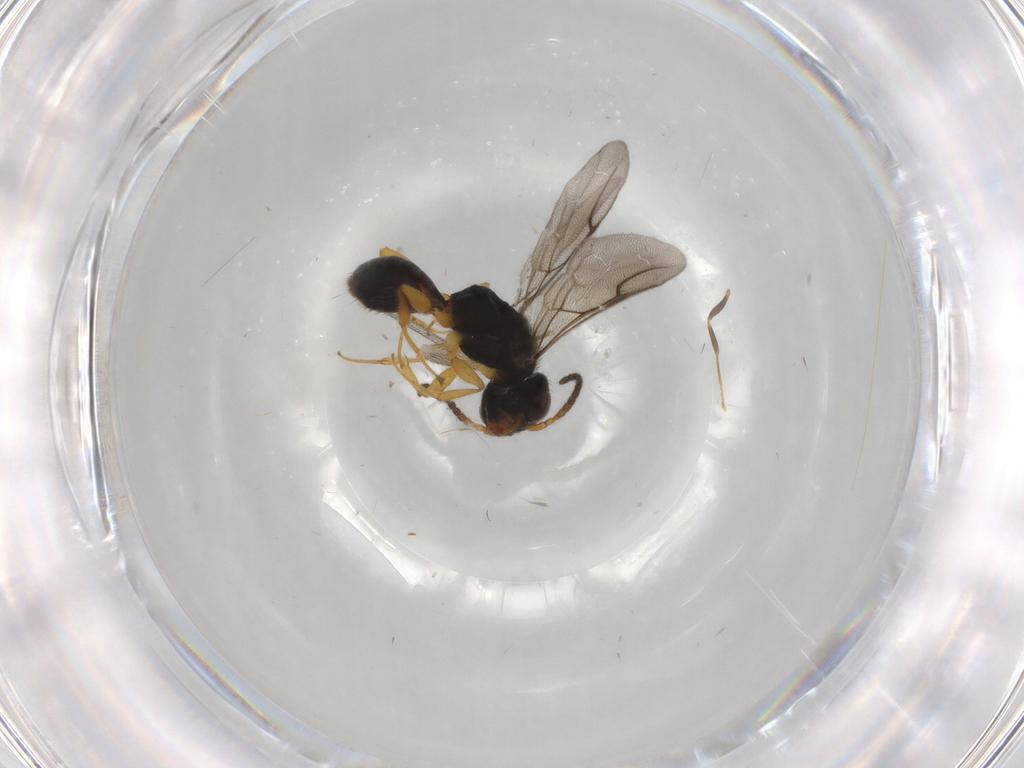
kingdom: Animalia
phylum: Arthropoda
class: Insecta
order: Hymenoptera
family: Bethylidae
